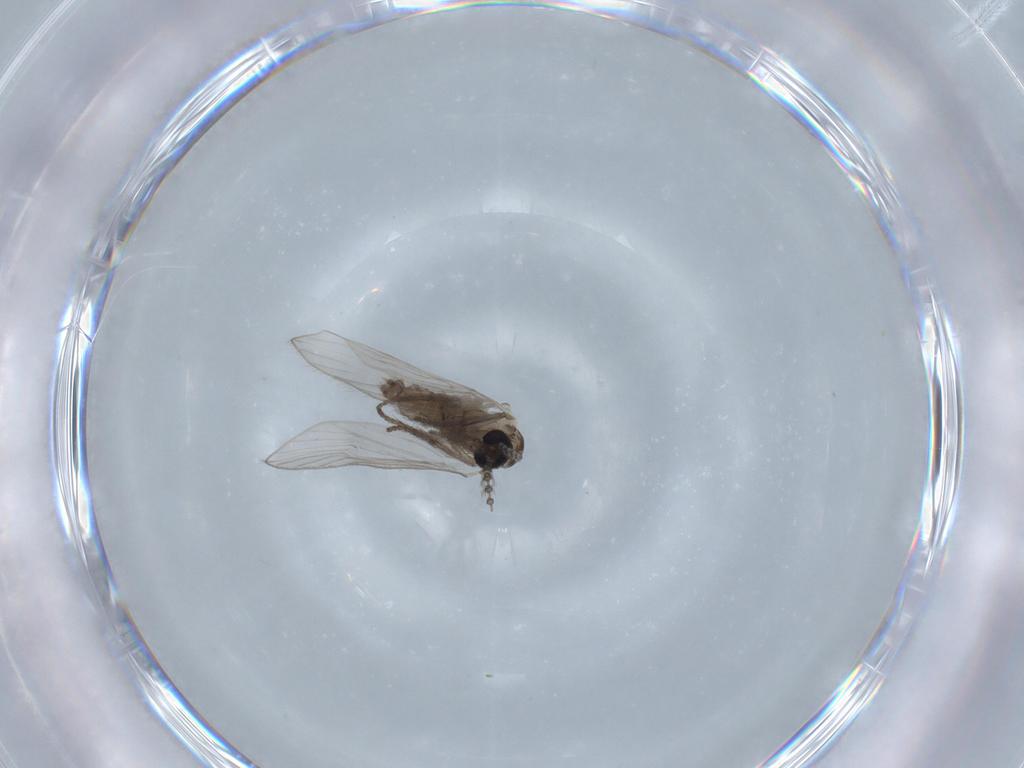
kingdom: Animalia
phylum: Arthropoda
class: Insecta
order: Diptera
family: Psychodidae
